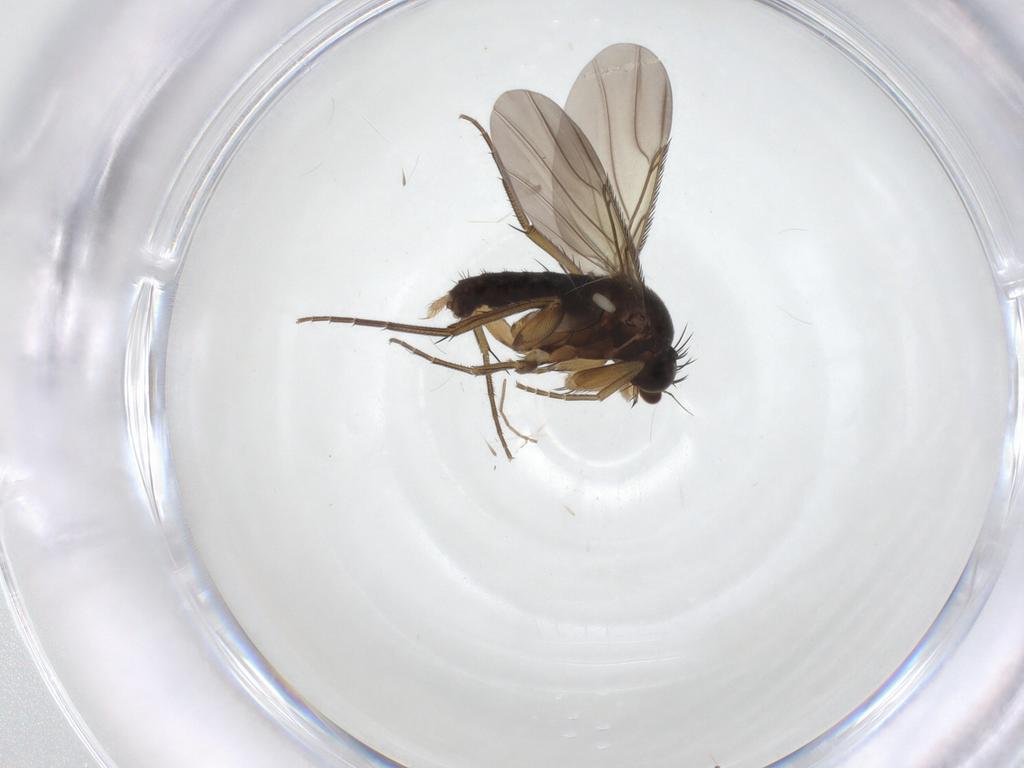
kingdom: Animalia
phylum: Arthropoda
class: Insecta
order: Diptera
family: Phoridae
